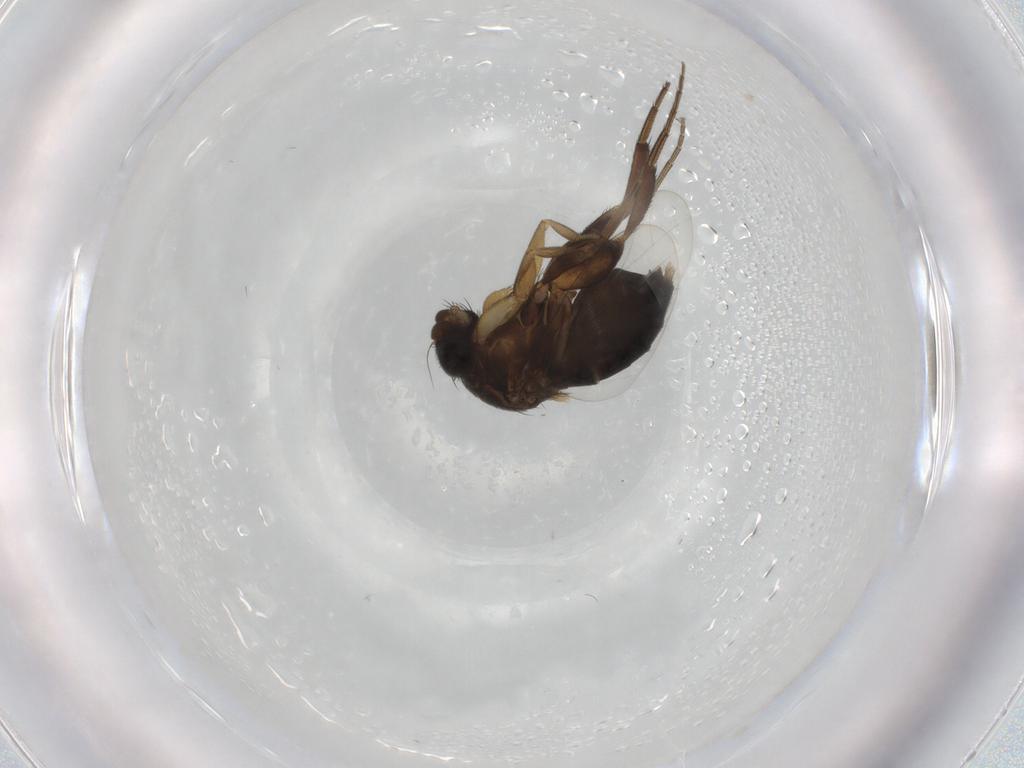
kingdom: Animalia
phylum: Arthropoda
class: Insecta
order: Diptera
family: Phoridae
